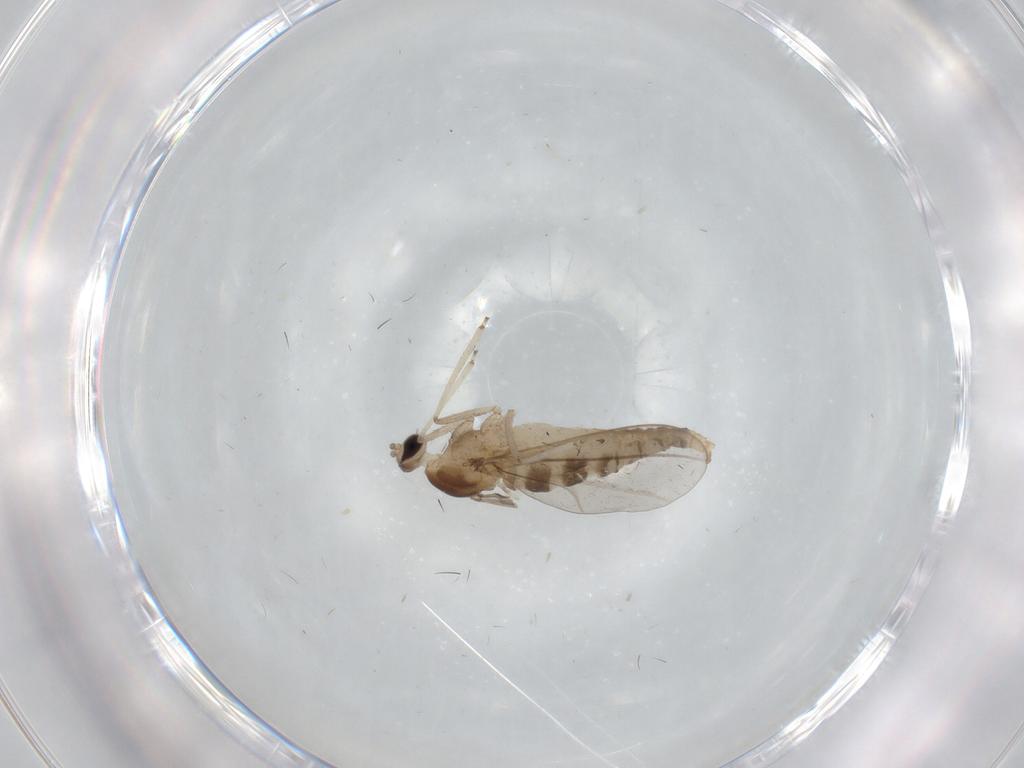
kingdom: Animalia
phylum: Arthropoda
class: Insecta
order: Diptera
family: Cecidomyiidae
